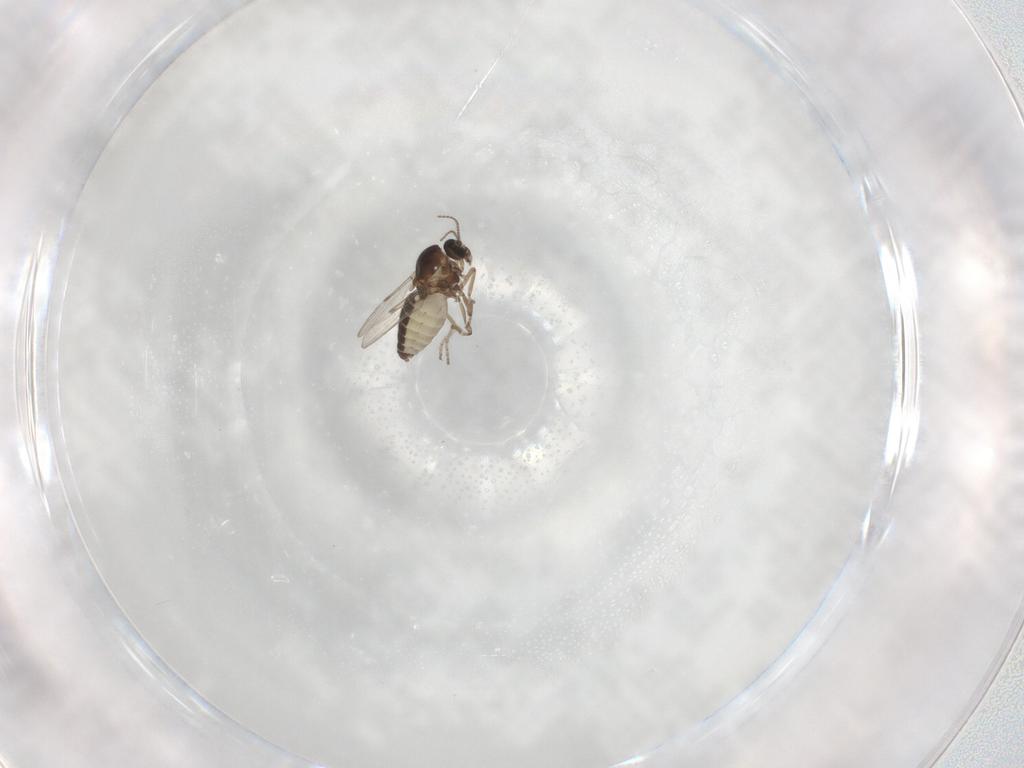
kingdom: Animalia
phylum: Arthropoda
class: Insecta
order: Diptera
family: Ceratopogonidae
